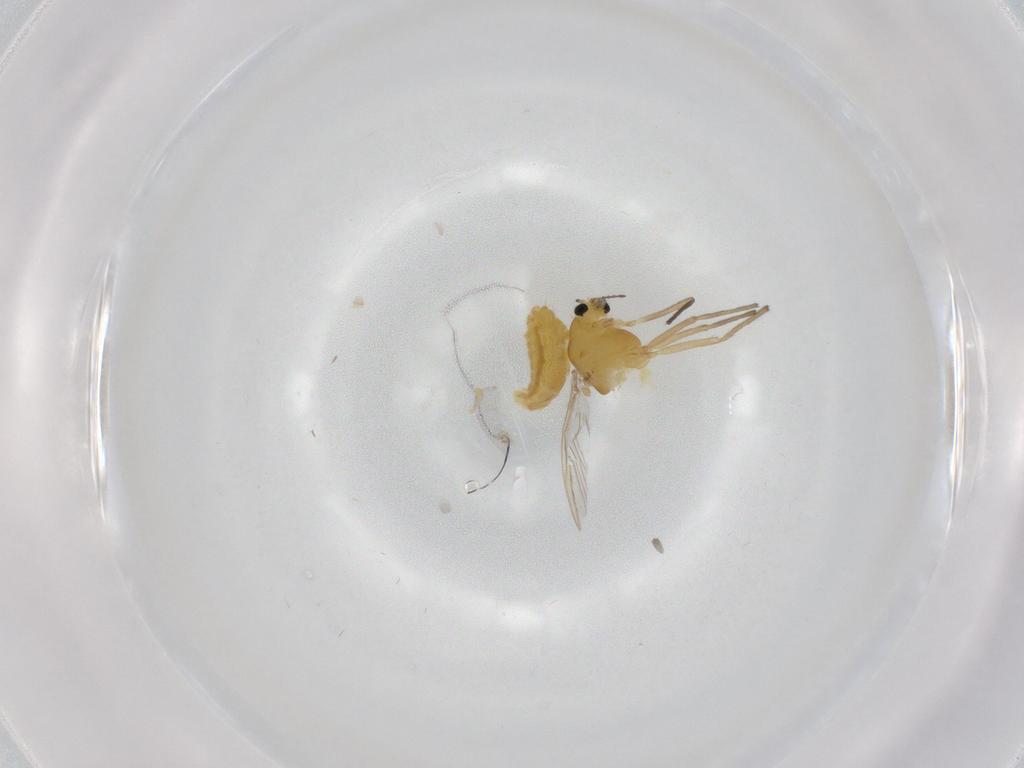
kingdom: Animalia
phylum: Arthropoda
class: Insecta
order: Diptera
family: Chironomidae
